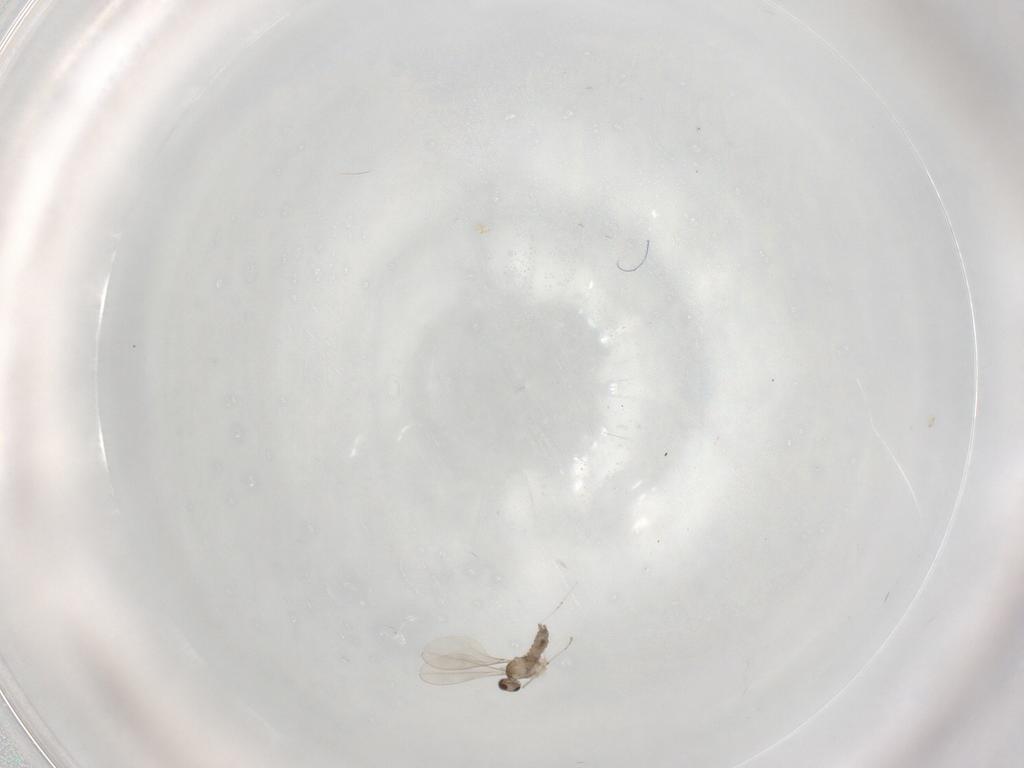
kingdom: Animalia
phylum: Arthropoda
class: Insecta
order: Diptera
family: Cecidomyiidae
